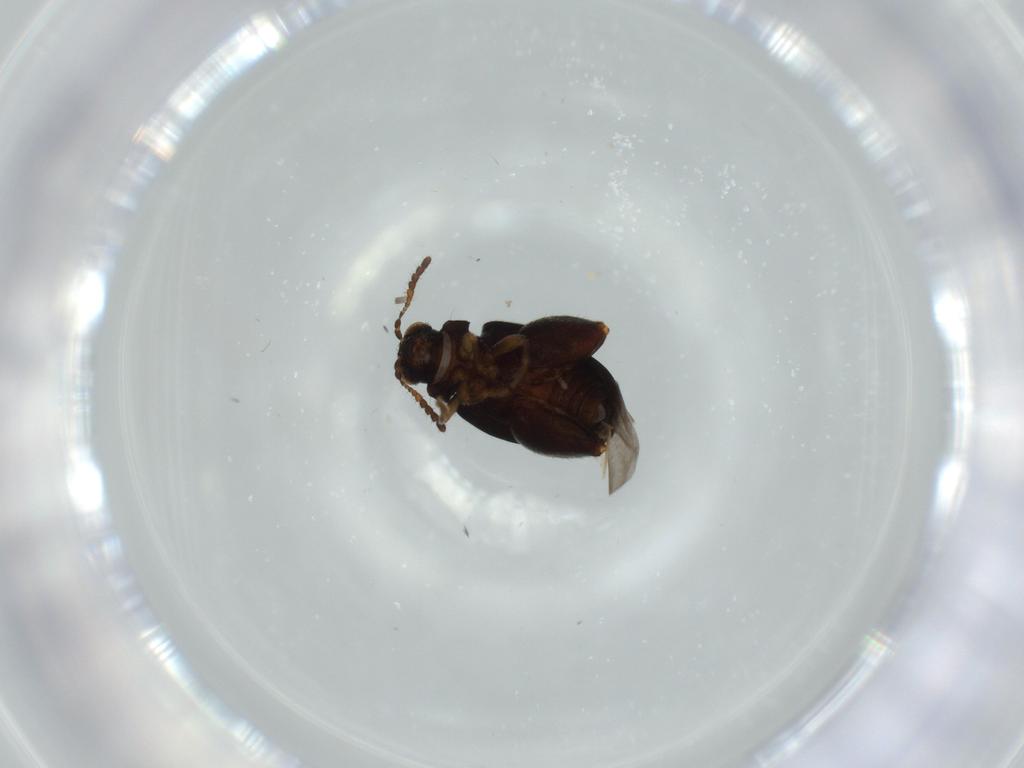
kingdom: Animalia
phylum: Arthropoda
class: Insecta
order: Coleoptera
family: Chrysomelidae
